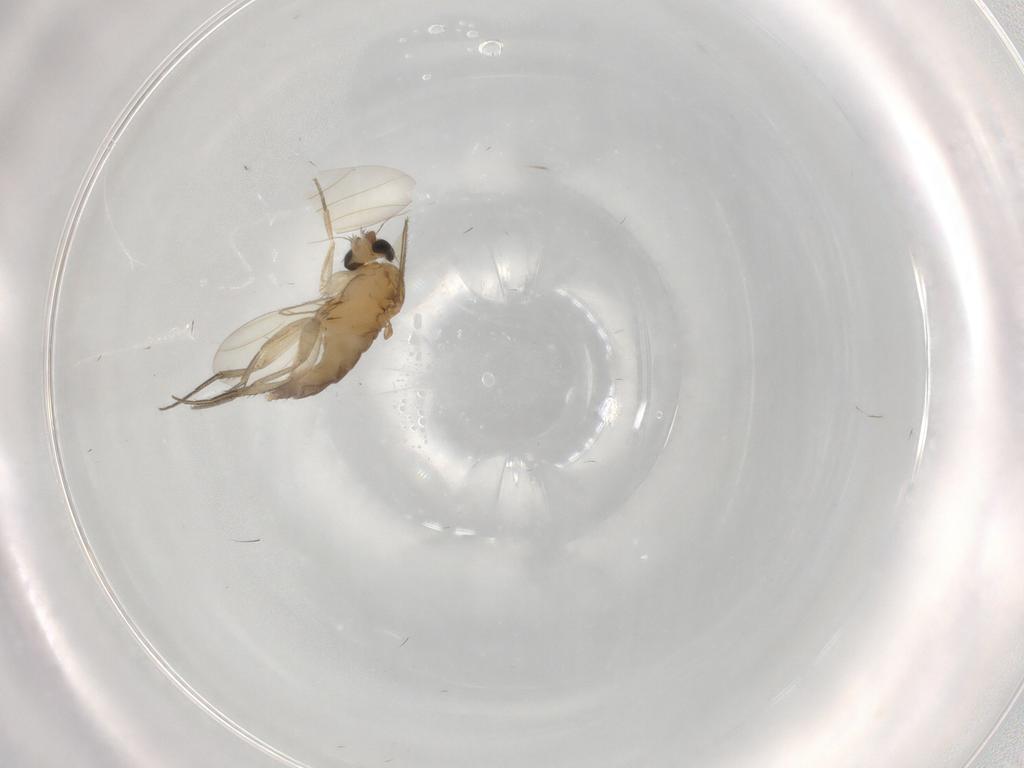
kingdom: Animalia
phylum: Arthropoda
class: Insecta
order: Diptera
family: Phoridae
